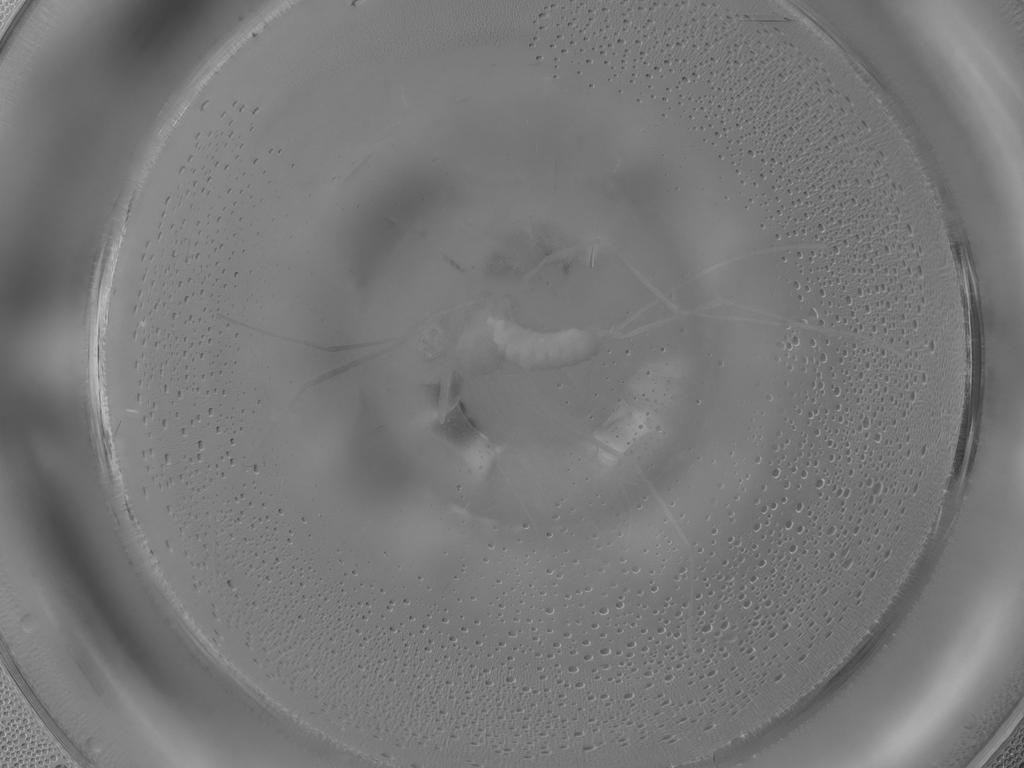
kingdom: Animalia
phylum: Arthropoda
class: Insecta
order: Diptera
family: Cecidomyiidae
